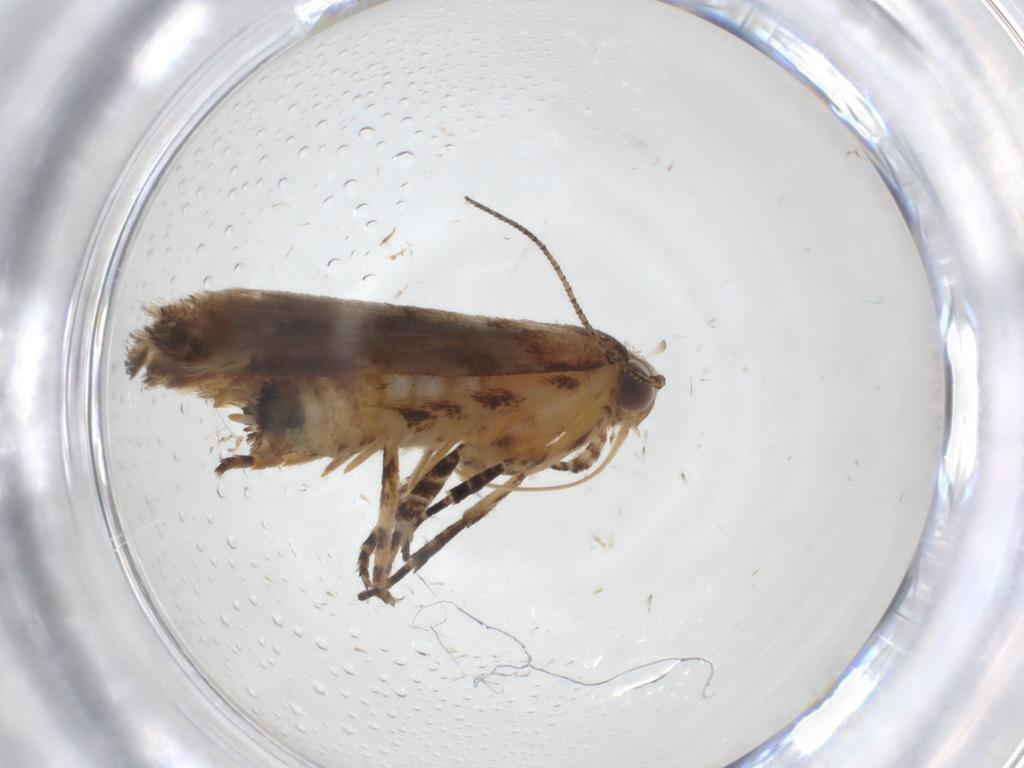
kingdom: Animalia
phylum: Arthropoda
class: Insecta
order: Lepidoptera
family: Gelechiidae
